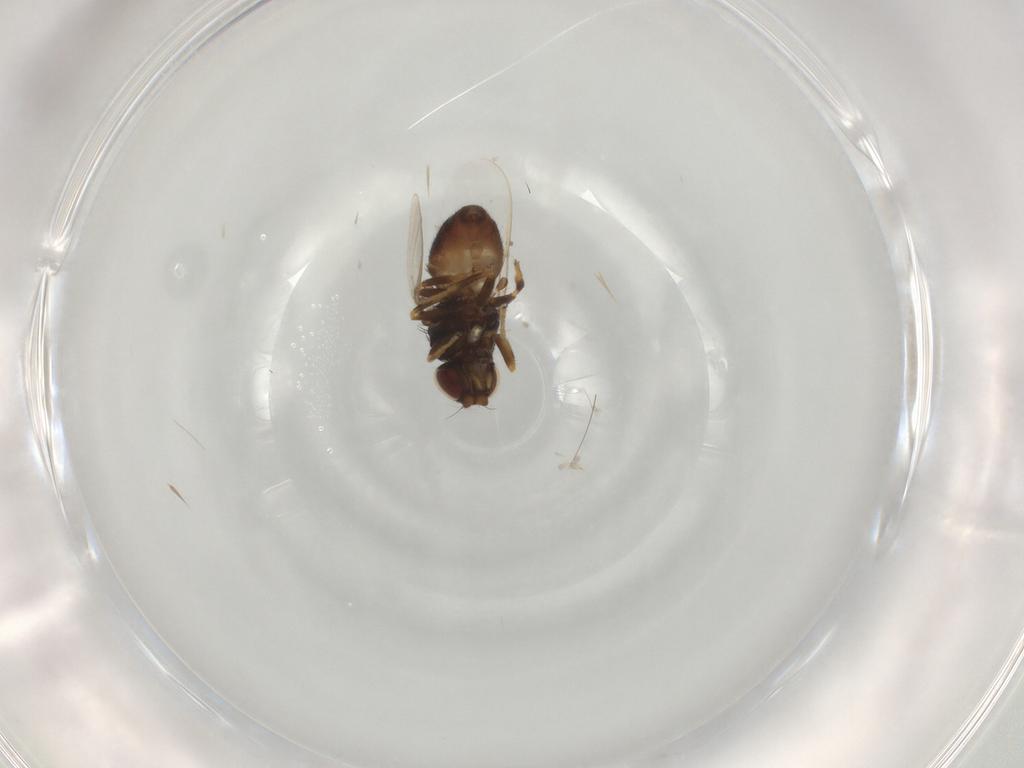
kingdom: Animalia
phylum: Arthropoda
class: Insecta
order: Diptera
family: Chloropidae
